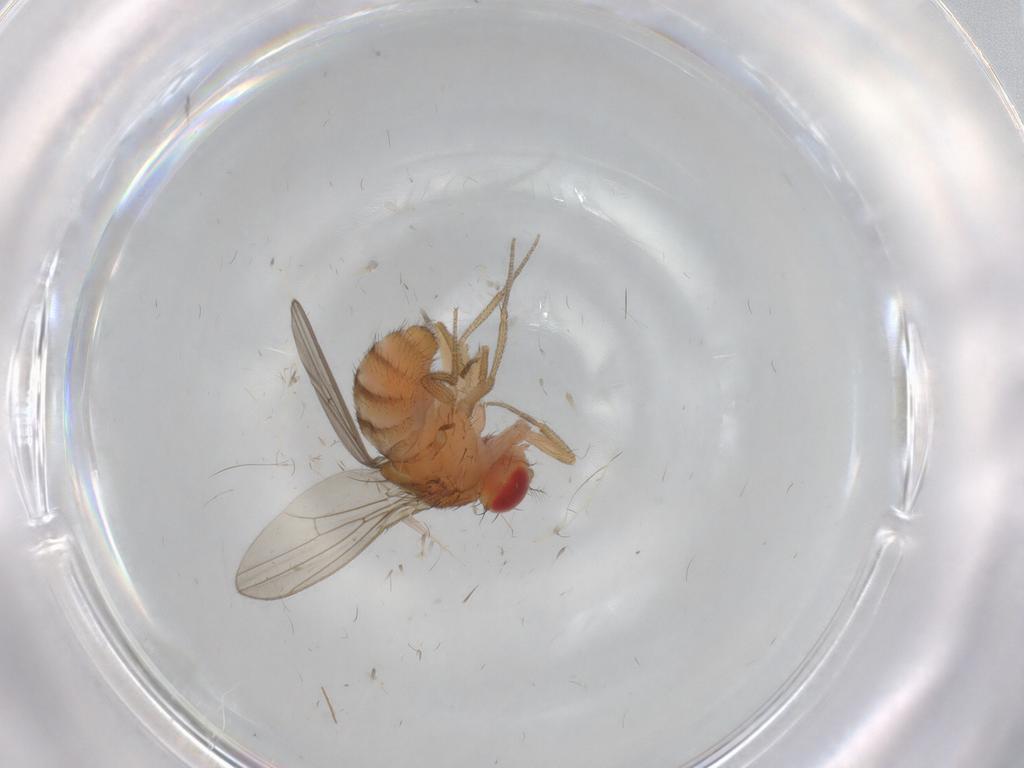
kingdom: Animalia
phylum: Arthropoda
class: Insecta
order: Diptera
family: Drosophilidae
